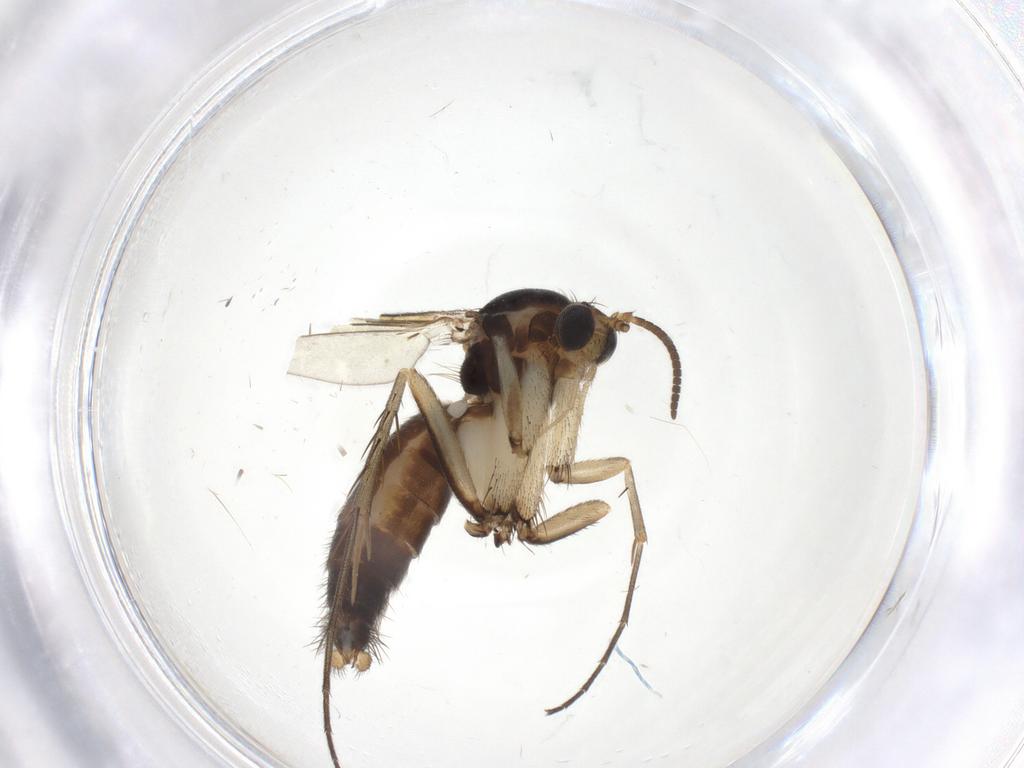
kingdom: Animalia
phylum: Arthropoda
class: Insecta
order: Diptera
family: Mycetophilidae
